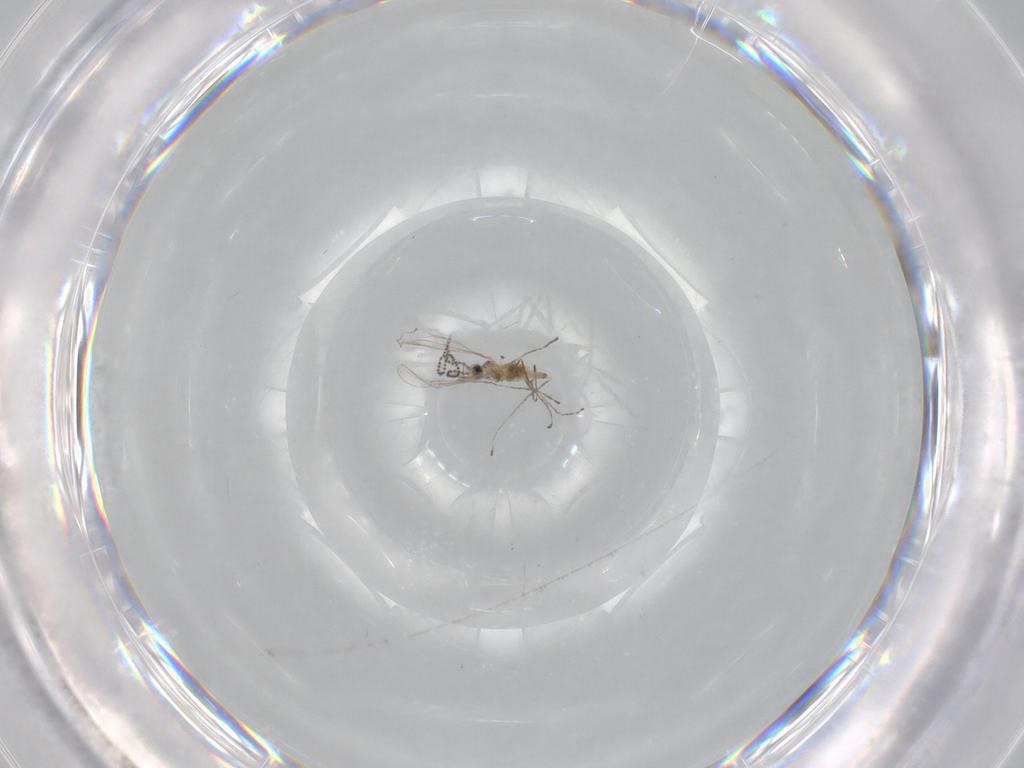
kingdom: Animalia
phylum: Arthropoda
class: Insecta
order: Diptera
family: Cecidomyiidae
